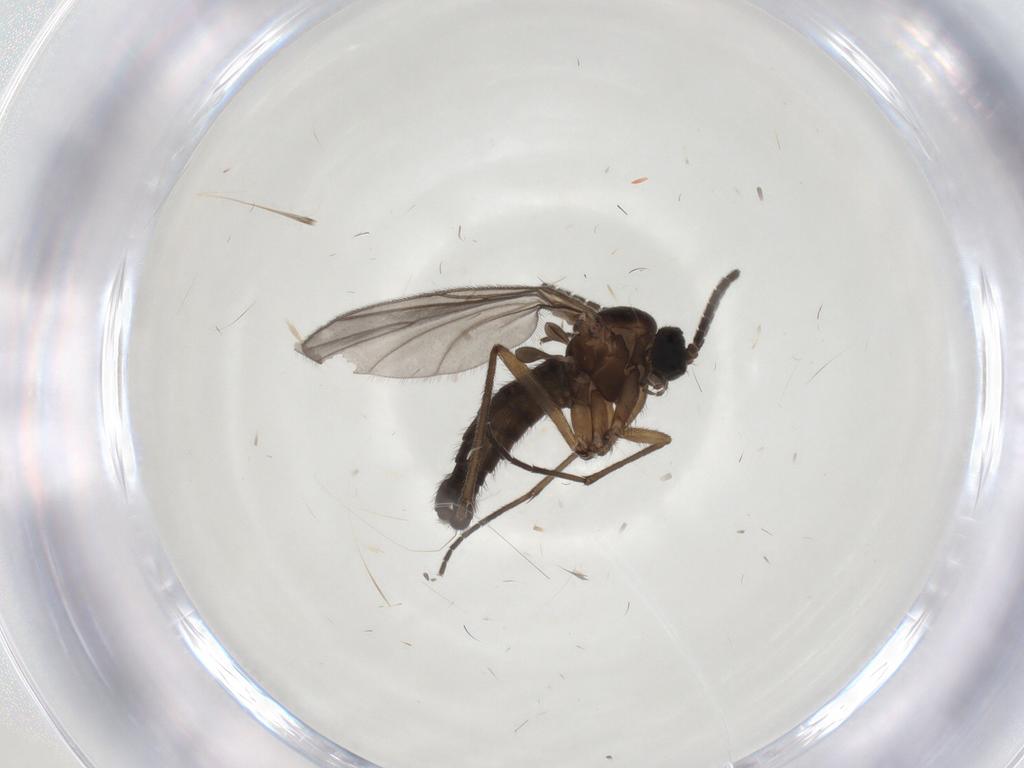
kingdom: Animalia
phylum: Arthropoda
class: Insecta
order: Diptera
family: Sciaridae
